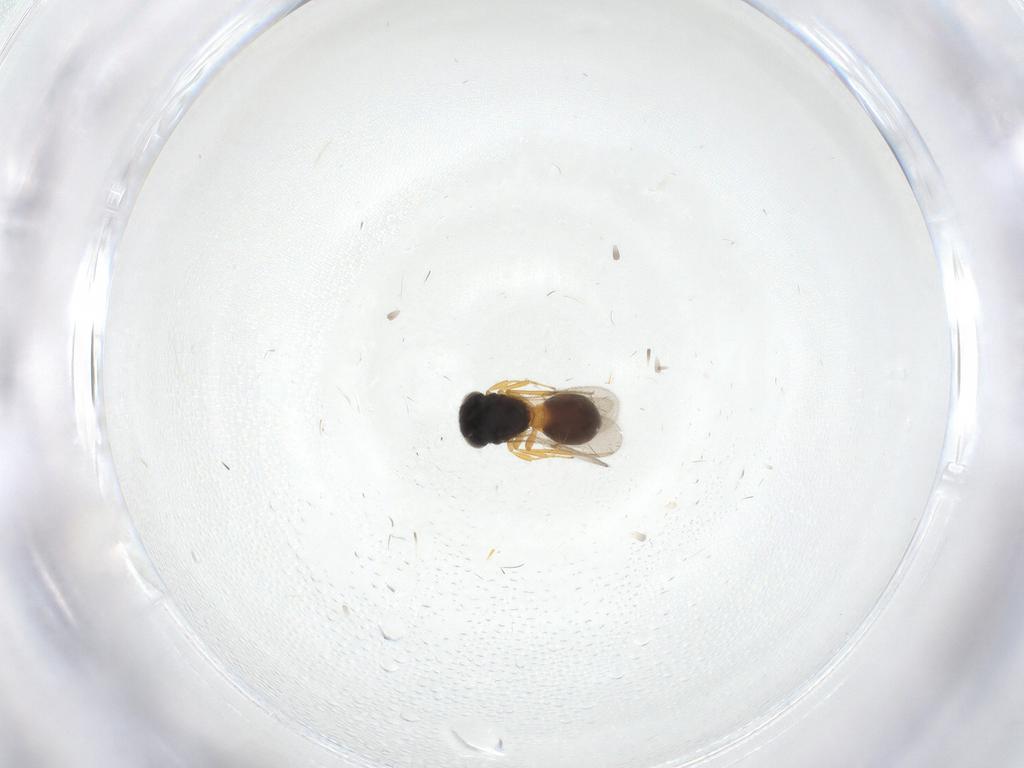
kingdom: Animalia
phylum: Arthropoda
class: Insecta
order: Hymenoptera
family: Scelionidae
